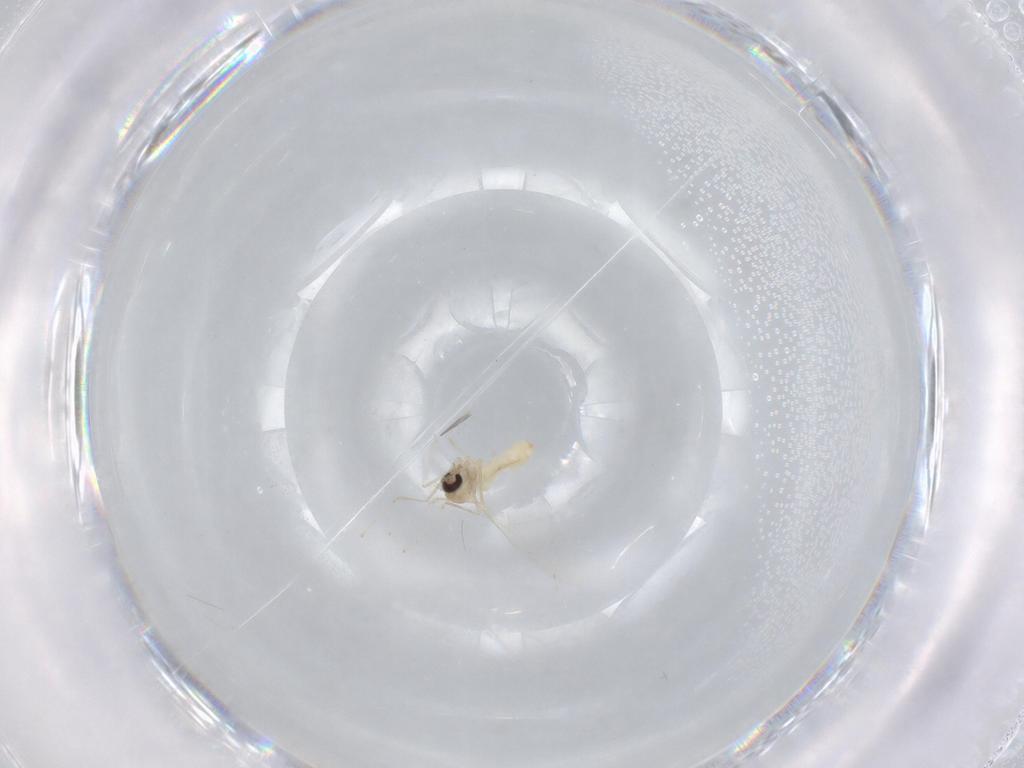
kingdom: Animalia
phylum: Arthropoda
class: Insecta
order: Diptera
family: Cecidomyiidae
